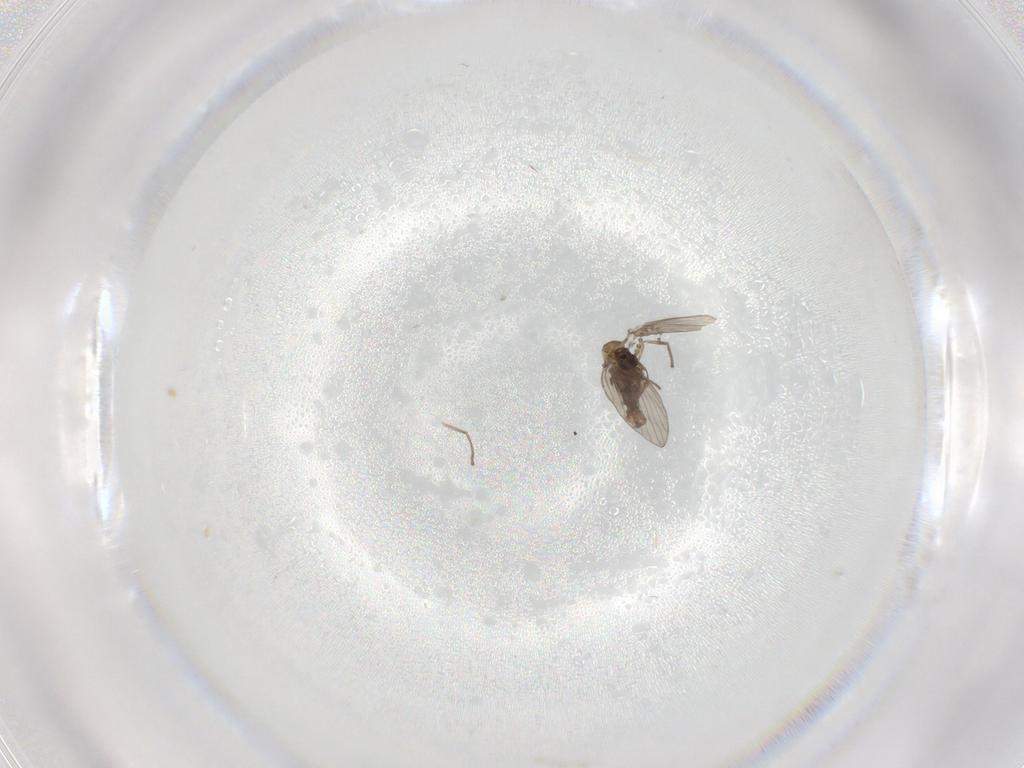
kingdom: Animalia
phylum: Arthropoda
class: Insecta
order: Diptera
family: Psychodidae
